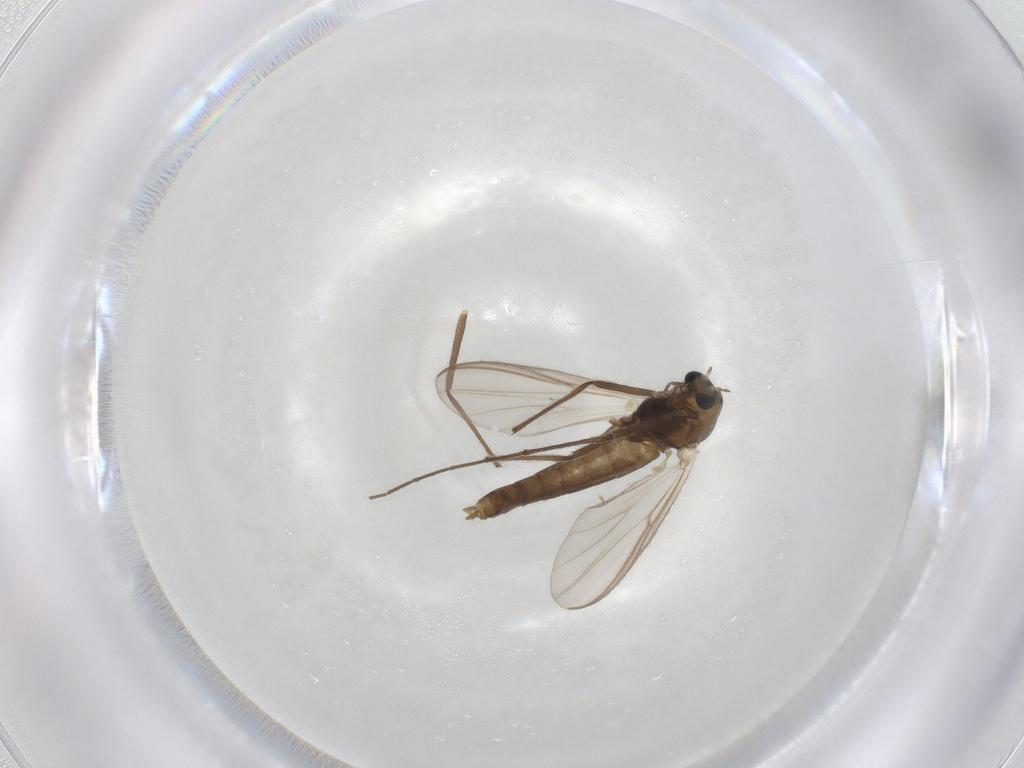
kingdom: Animalia
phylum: Arthropoda
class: Insecta
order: Diptera
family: Chironomidae
